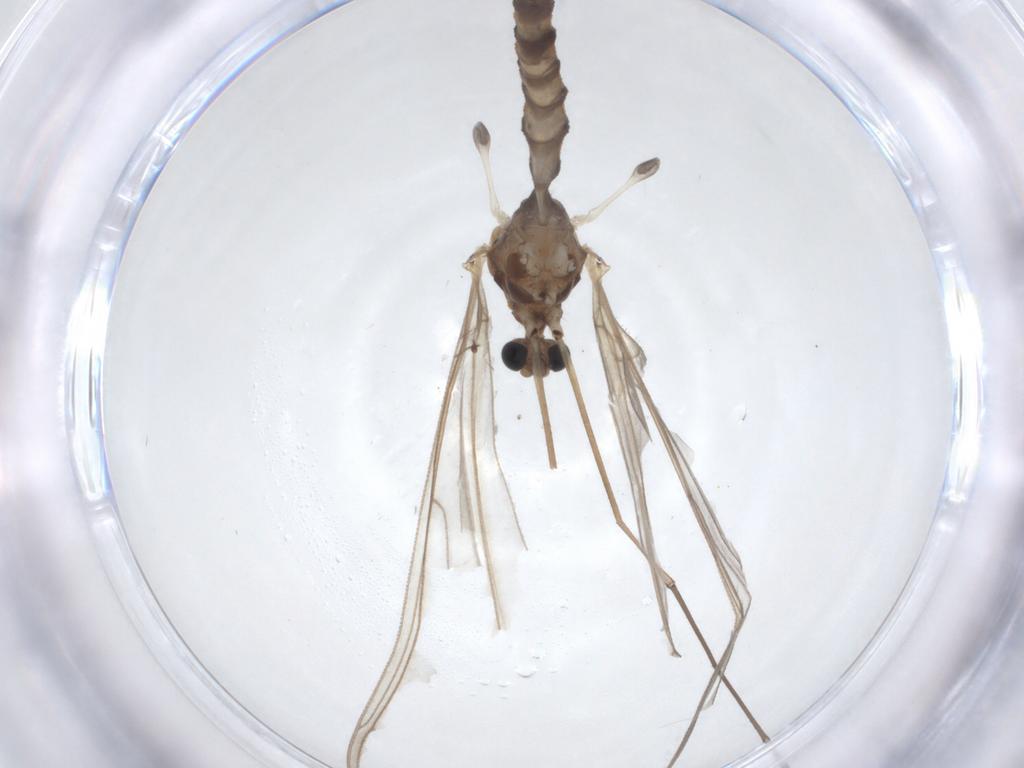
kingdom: Animalia
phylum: Arthropoda
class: Insecta
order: Diptera
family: Trichoceridae
